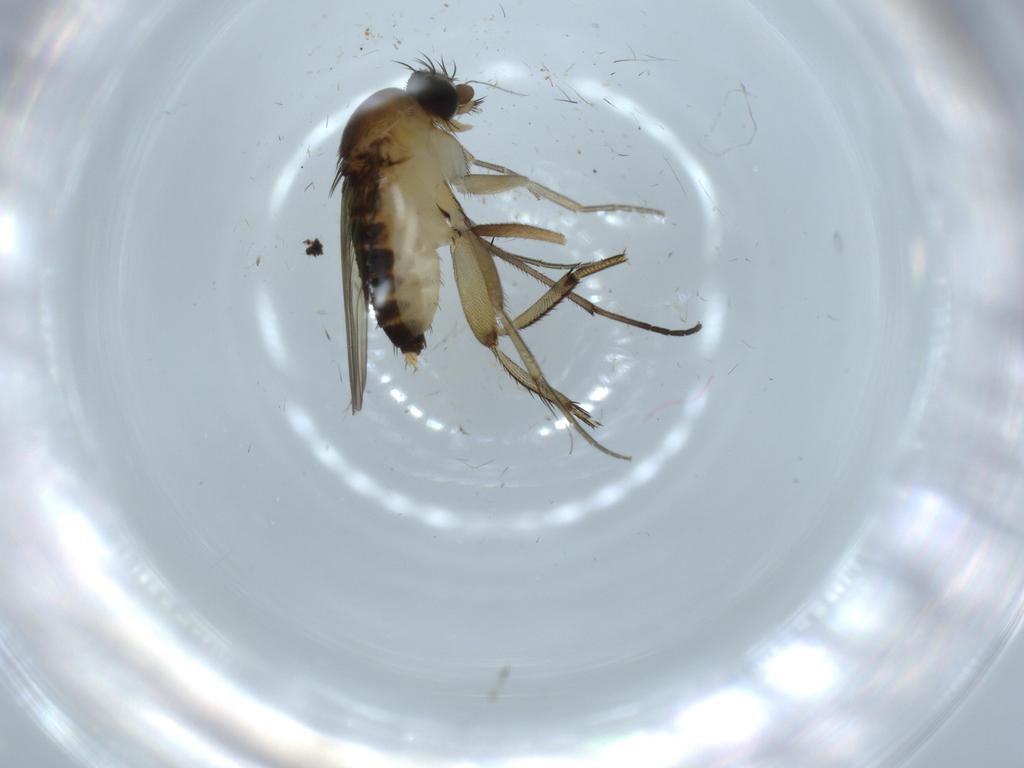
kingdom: Animalia
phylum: Arthropoda
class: Insecta
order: Diptera
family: Phoridae
